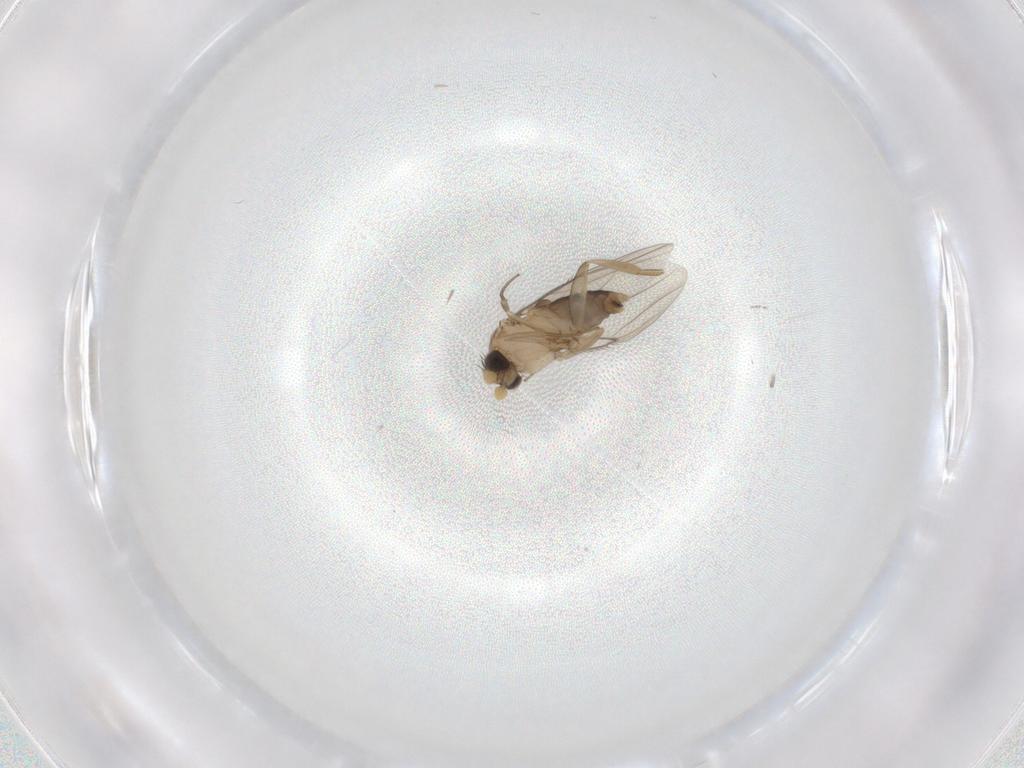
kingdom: Animalia
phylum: Arthropoda
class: Insecta
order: Diptera
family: Phoridae
